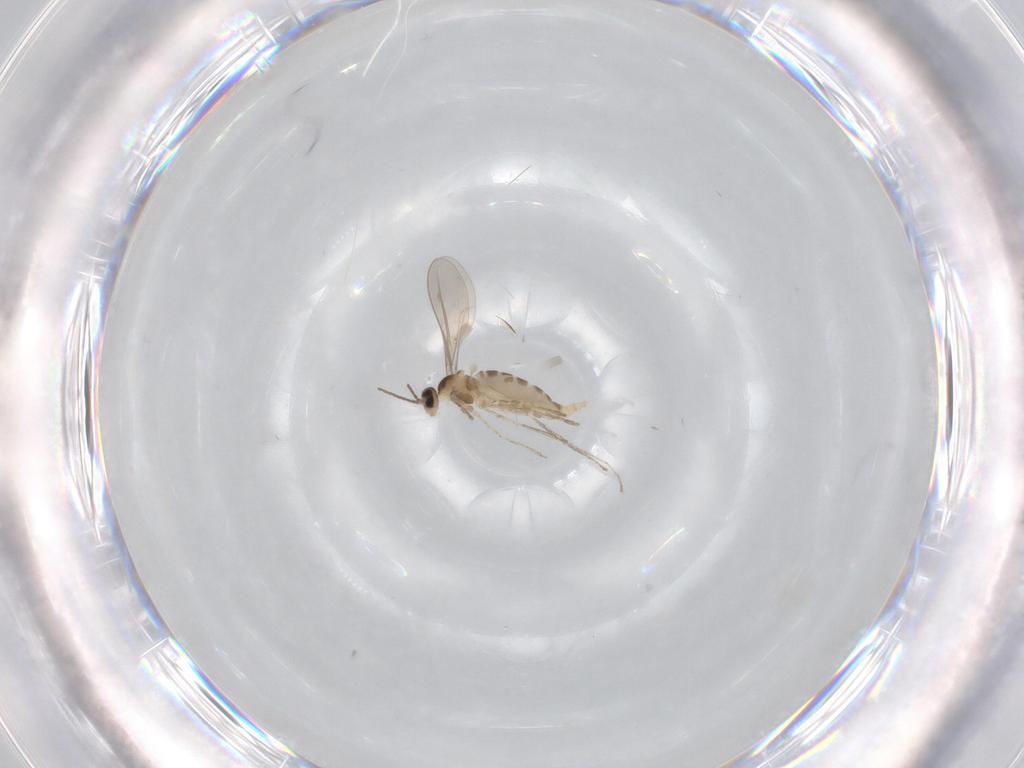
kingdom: Animalia
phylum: Arthropoda
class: Insecta
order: Diptera
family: Cecidomyiidae
